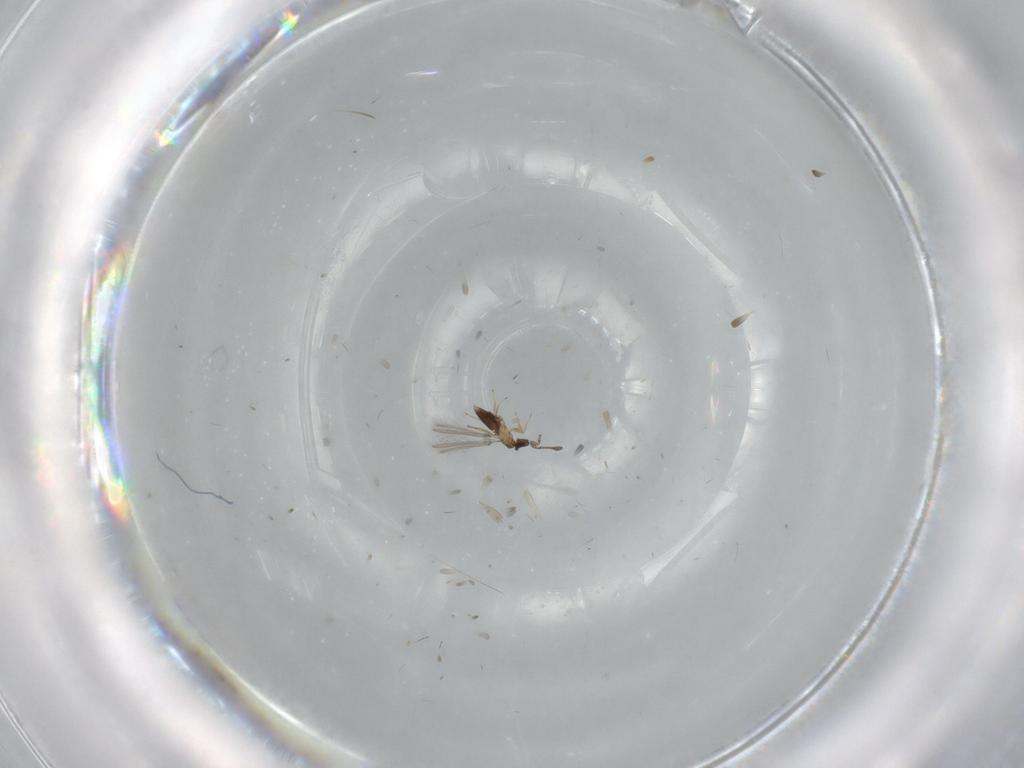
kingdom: Animalia
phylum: Arthropoda
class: Insecta
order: Hymenoptera
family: Mymaridae
